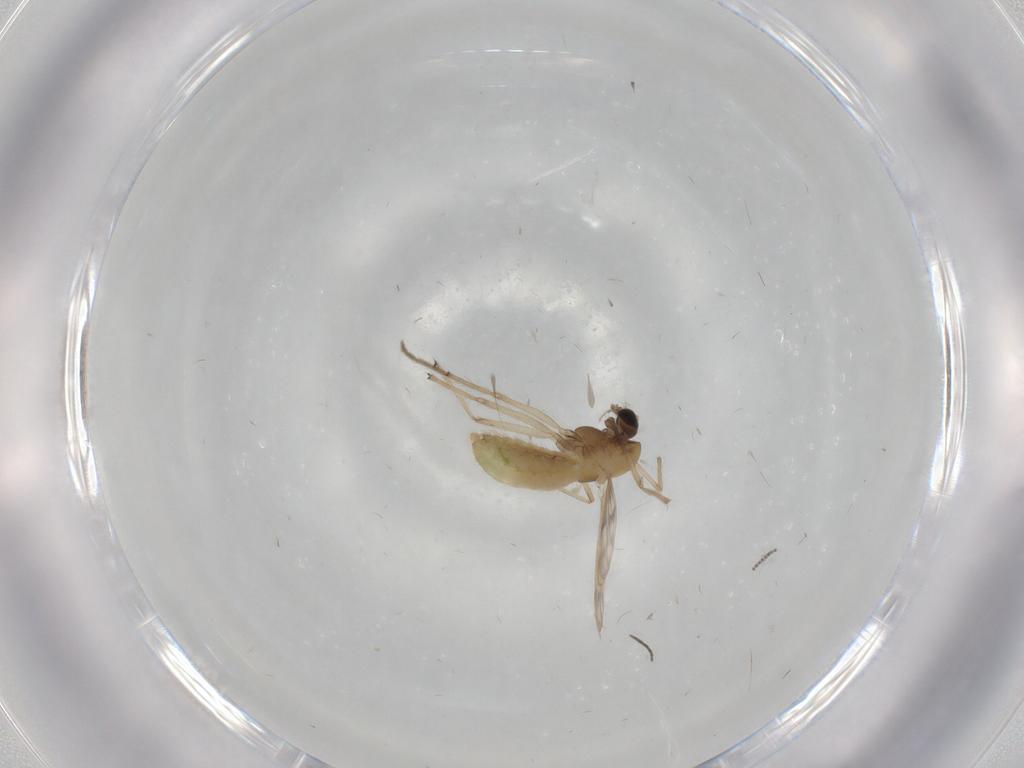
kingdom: Animalia
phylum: Arthropoda
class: Insecta
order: Diptera
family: Chironomidae
